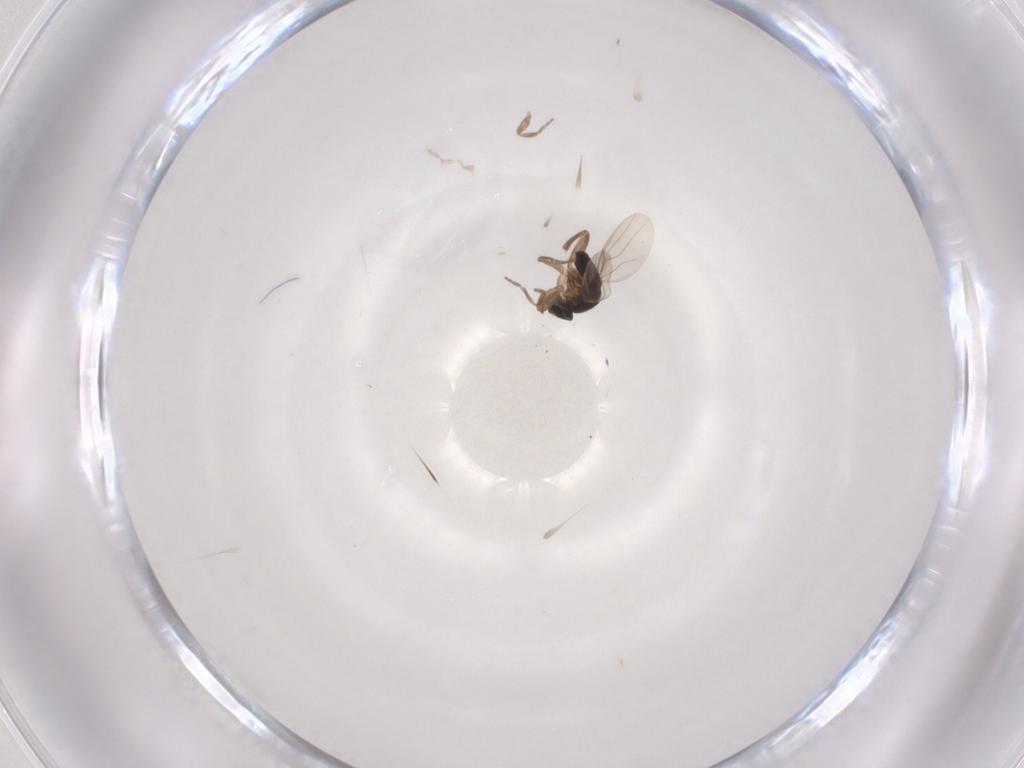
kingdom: Animalia
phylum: Arthropoda
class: Insecta
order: Diptera
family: Phoridae
